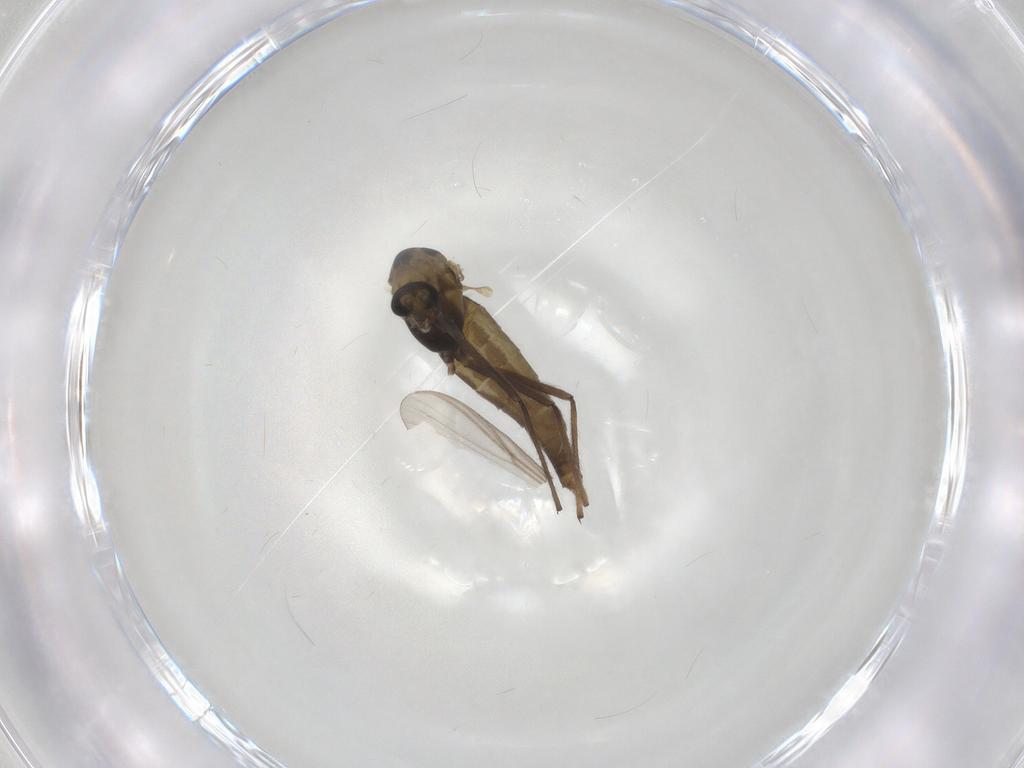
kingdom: Animalia
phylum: Arthropoda
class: Insecta
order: Diptera
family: Chironomidae
